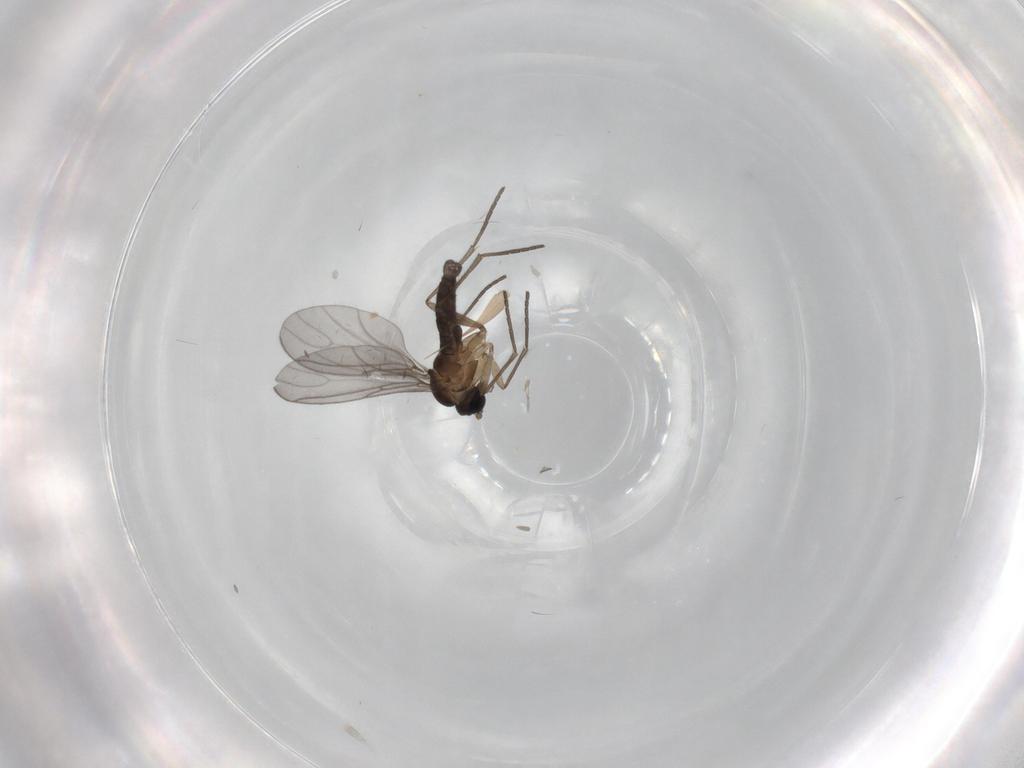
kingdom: Animalia
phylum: Arthropoda
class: Insecta
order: Diptera
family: Sciaridae
